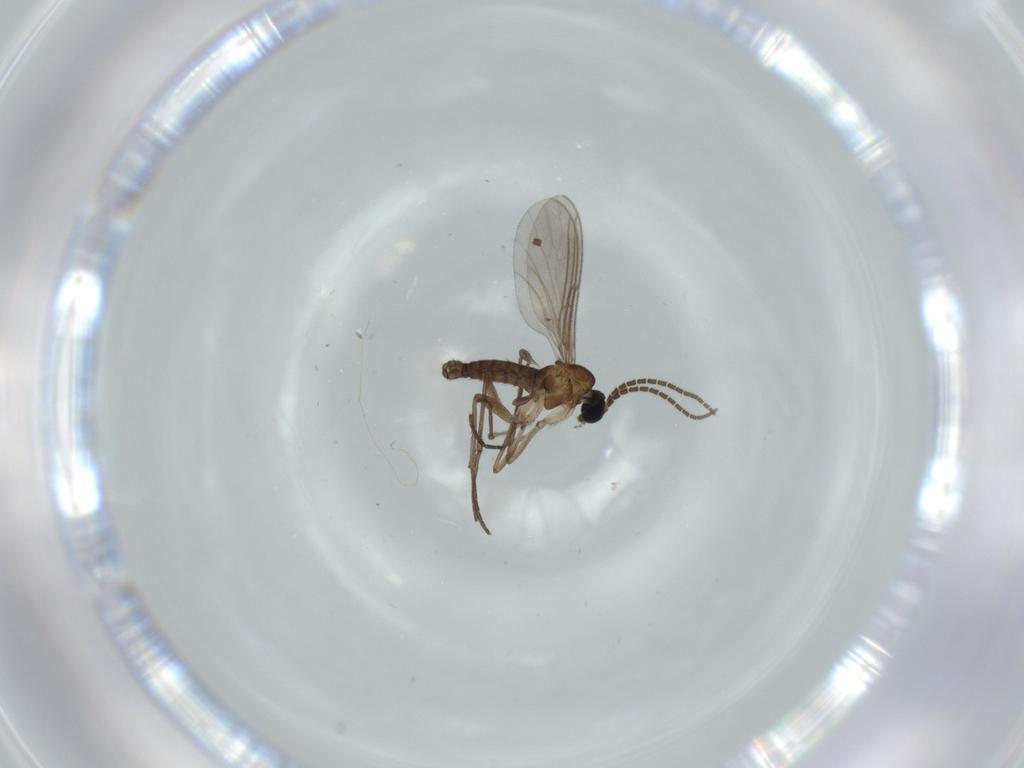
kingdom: Animalia
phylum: Arthropoda
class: Insecta
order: Diptera
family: Sciaridae
